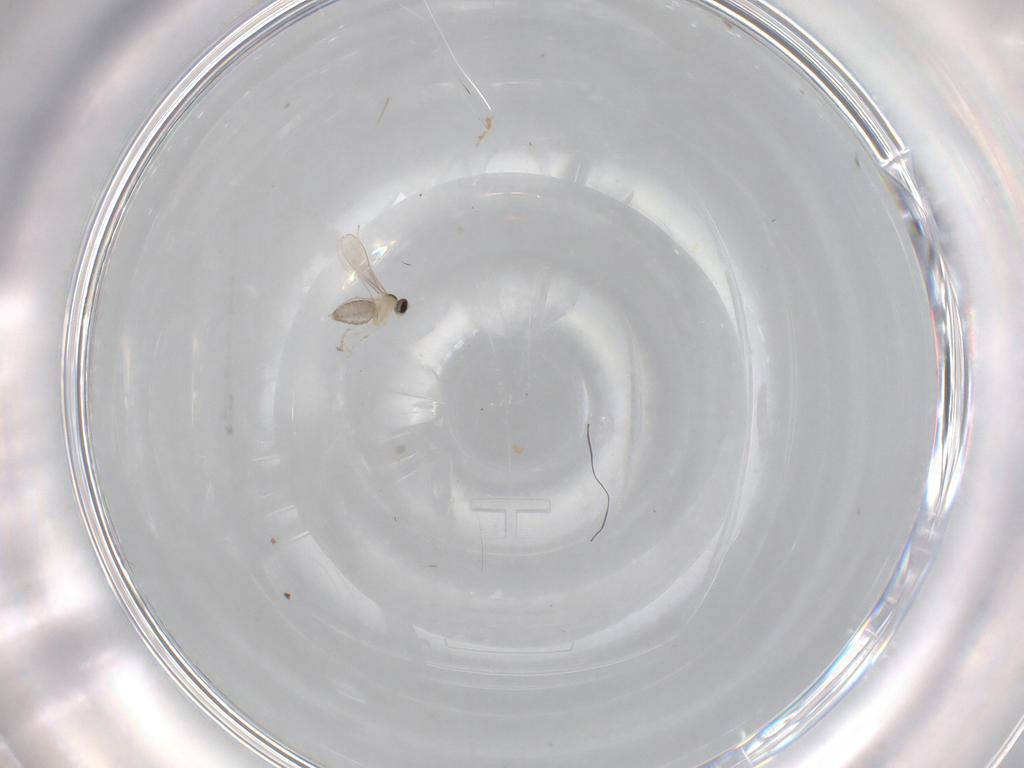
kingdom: Animalia
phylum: Arthropoda
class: Insecta
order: Diptera
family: Cecidomyiidae
